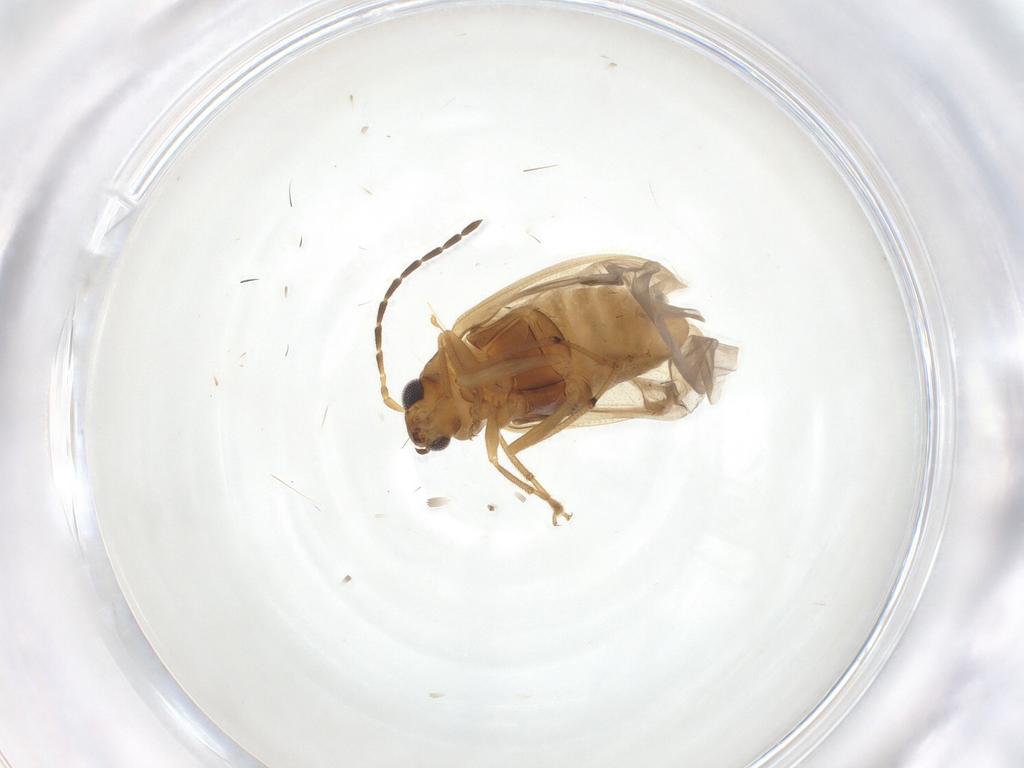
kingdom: Animalia
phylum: Arthropoda
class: Insecta
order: Coleoptera
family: Chrysomelidae
